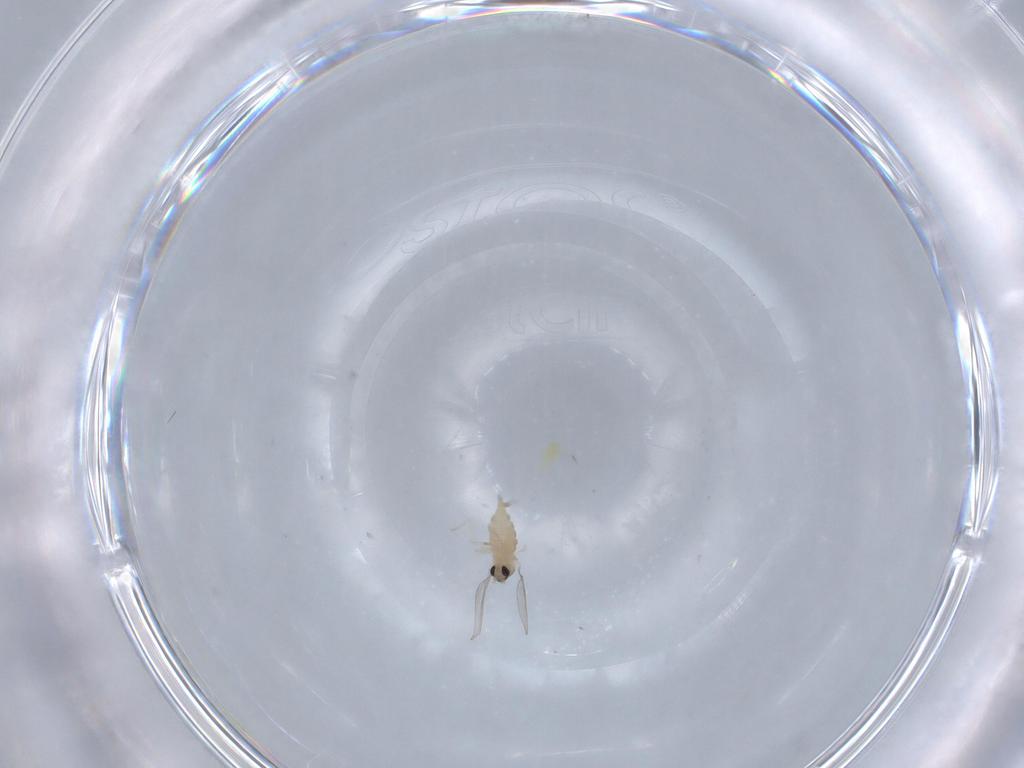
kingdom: Animalia
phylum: Arthropoda
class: Insecta
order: Diptera
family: Cecidomyiidae
